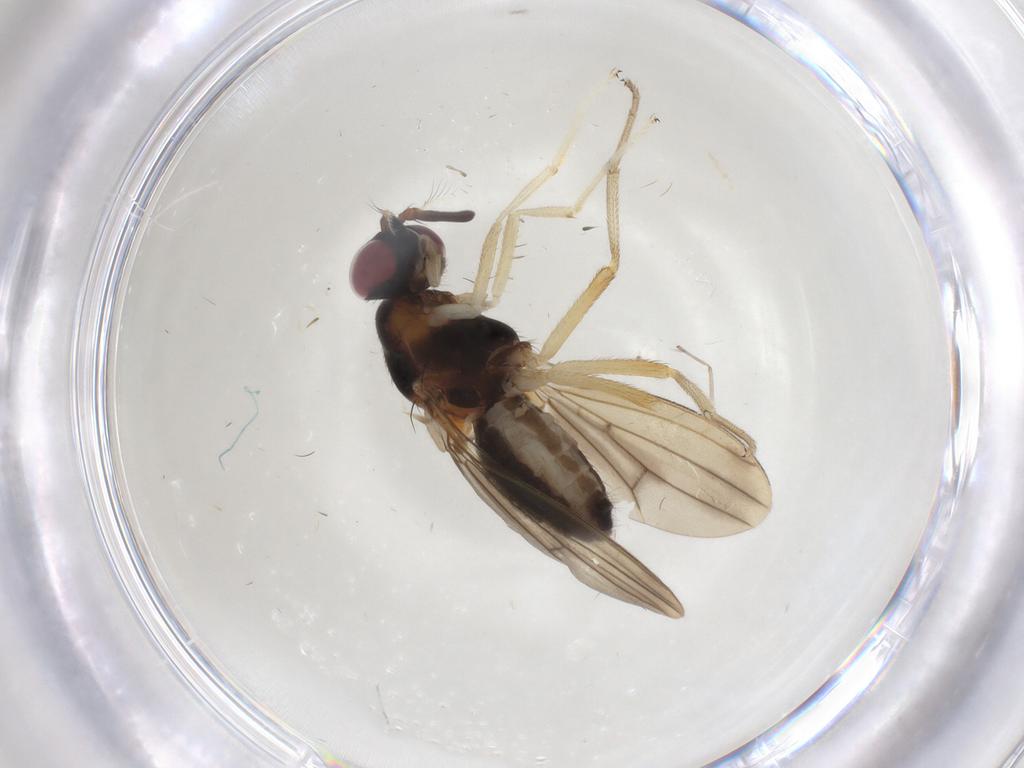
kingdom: Animalia
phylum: Arthropoda
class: Insecta
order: Diptera
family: Lauxaniidae
